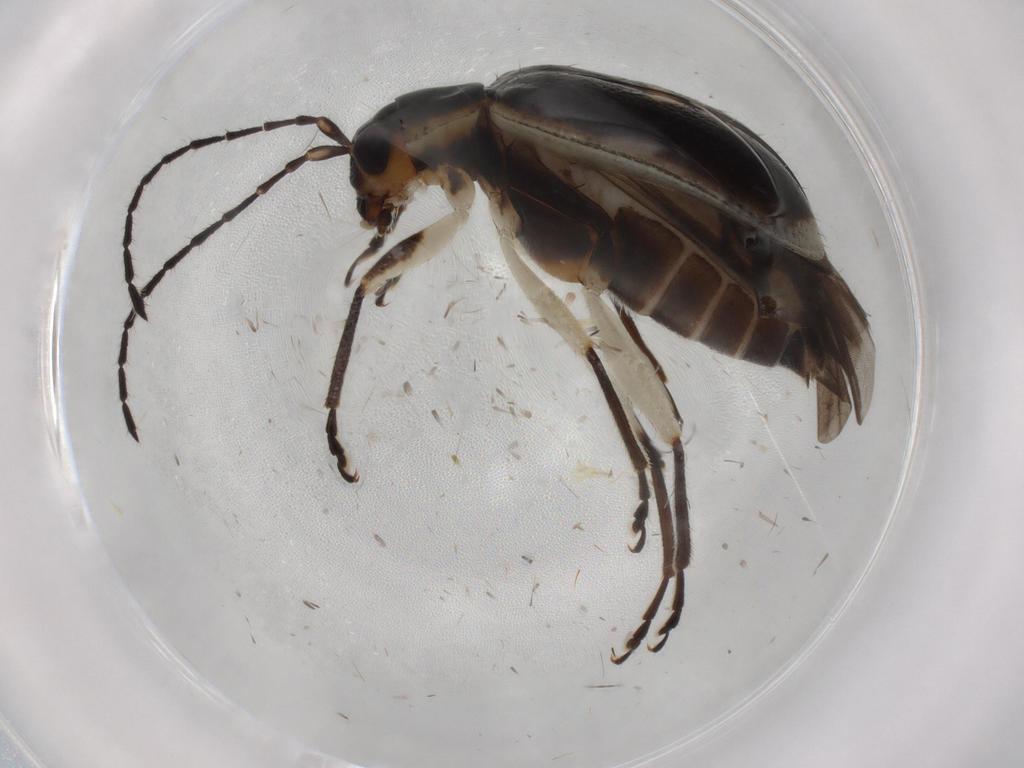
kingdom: Animalia
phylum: Arthropoda
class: Insecta
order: Coleoptera
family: Chrysomelidae
